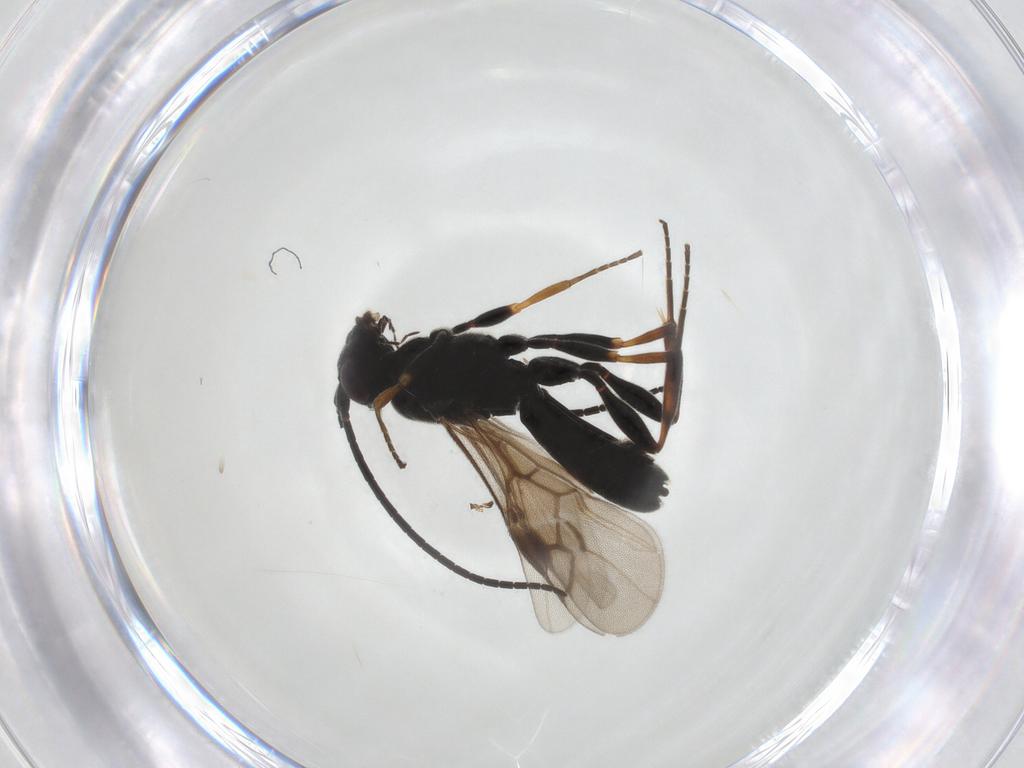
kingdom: Animalia
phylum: Arthropoda
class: Insecta
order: Hymenoptera
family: Braconidae
